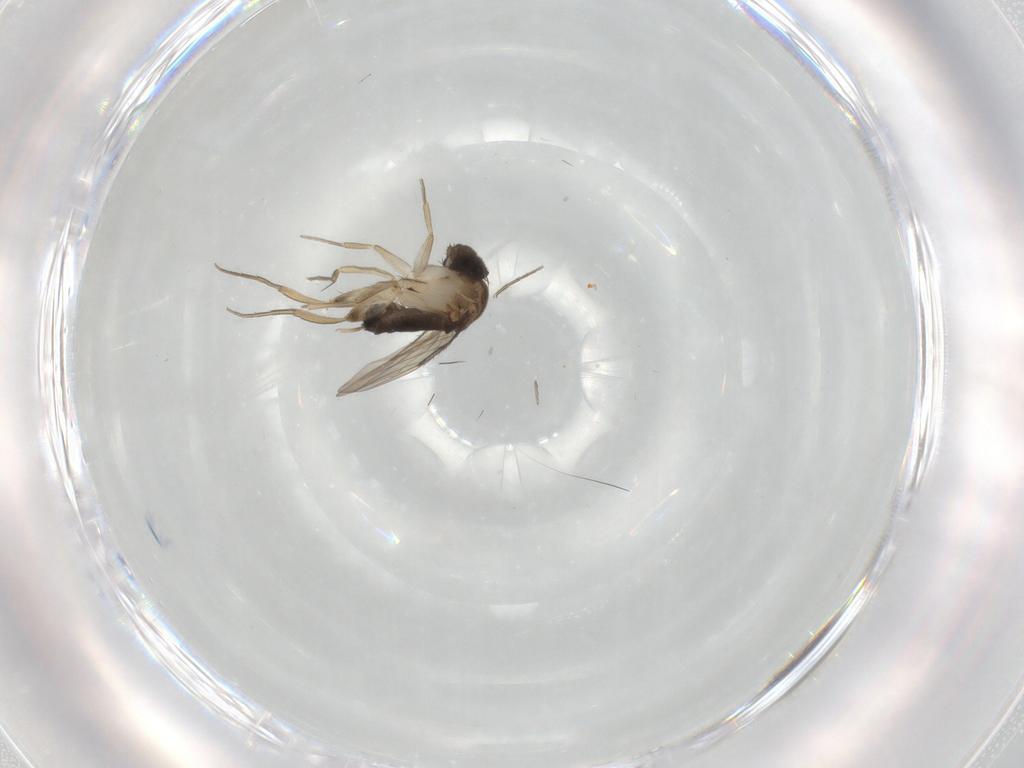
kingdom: Animalia
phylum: Arthropoda
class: Insecta
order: Diptera
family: Phoridae
